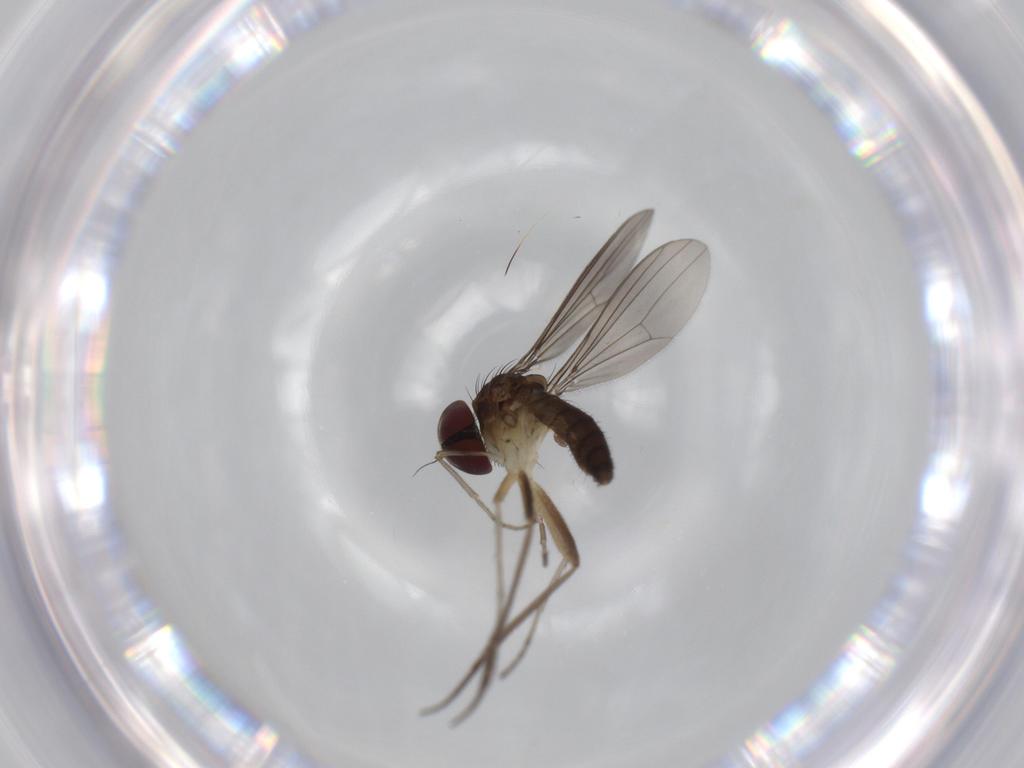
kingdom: Animalia
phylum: Arthropoda
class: Insecta
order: Diptera
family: Dolichopodidae
